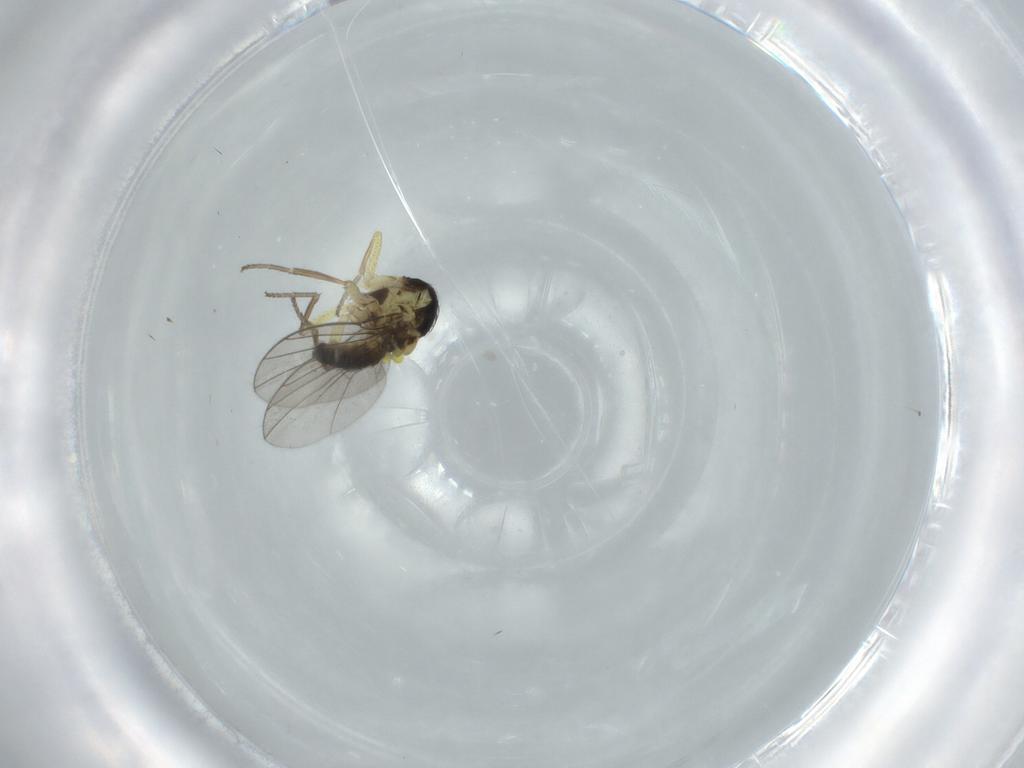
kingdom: Animalia
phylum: Arthropoda
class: Insecta
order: Diptera
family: Agromyzidae
